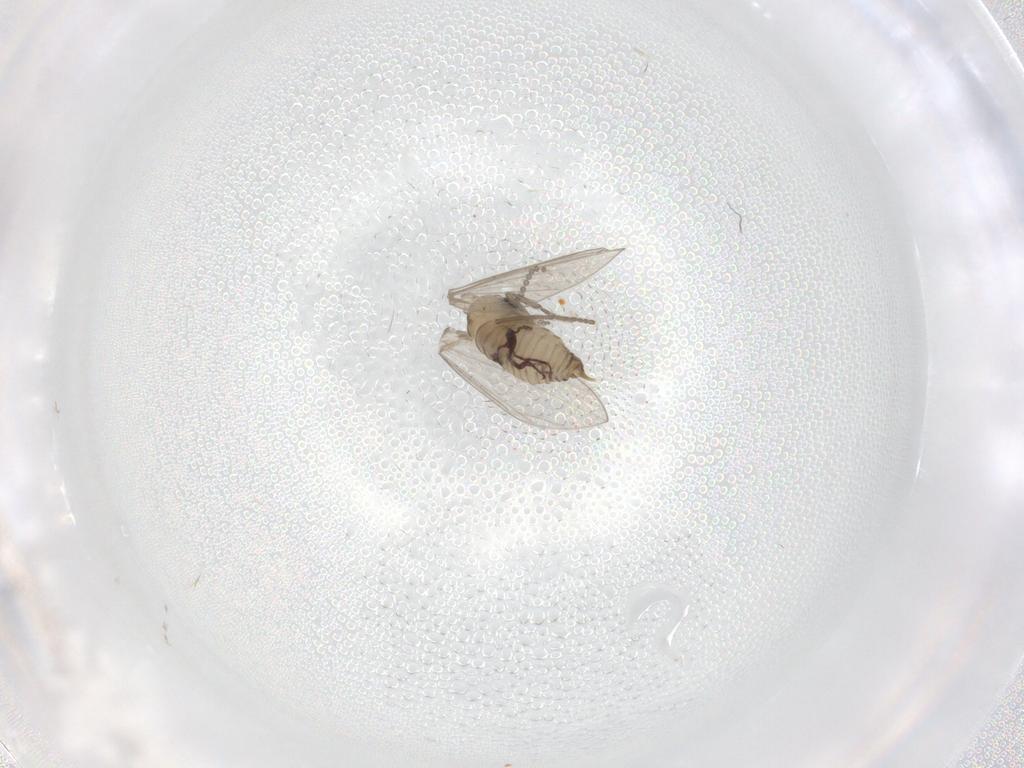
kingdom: Animalia
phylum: Arthropoda
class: Insecta
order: Diptera
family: Psychodidae
